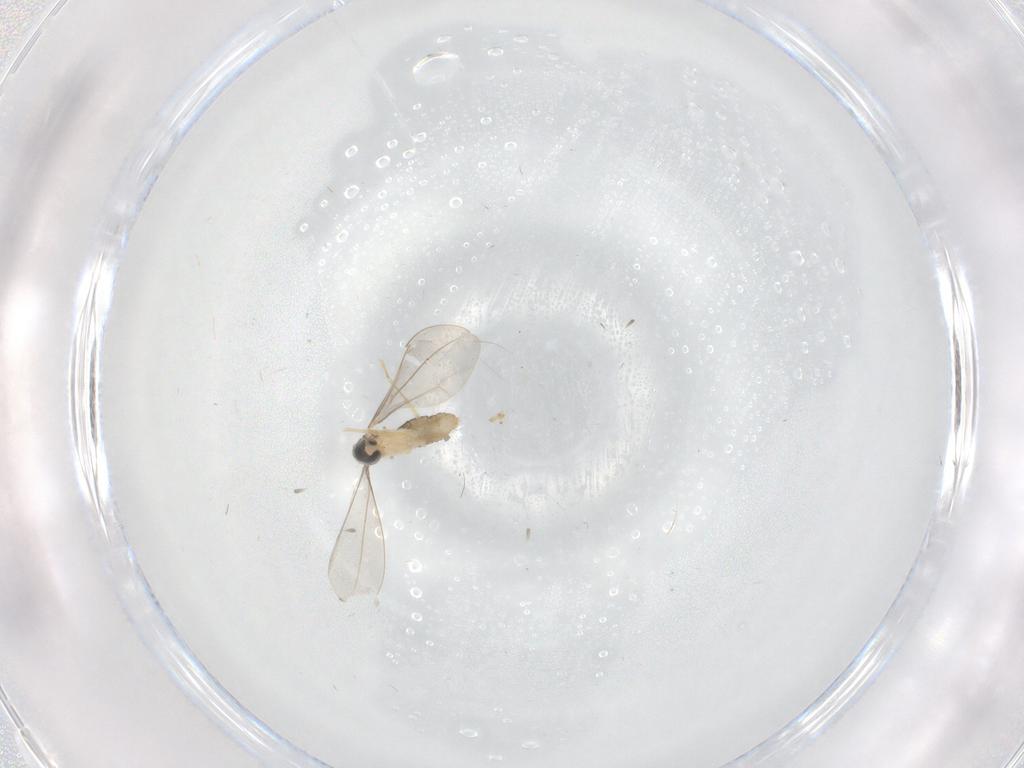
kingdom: Animalia
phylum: Arthropoda
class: Insecta
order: Diptera
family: Cecidomyiidae
